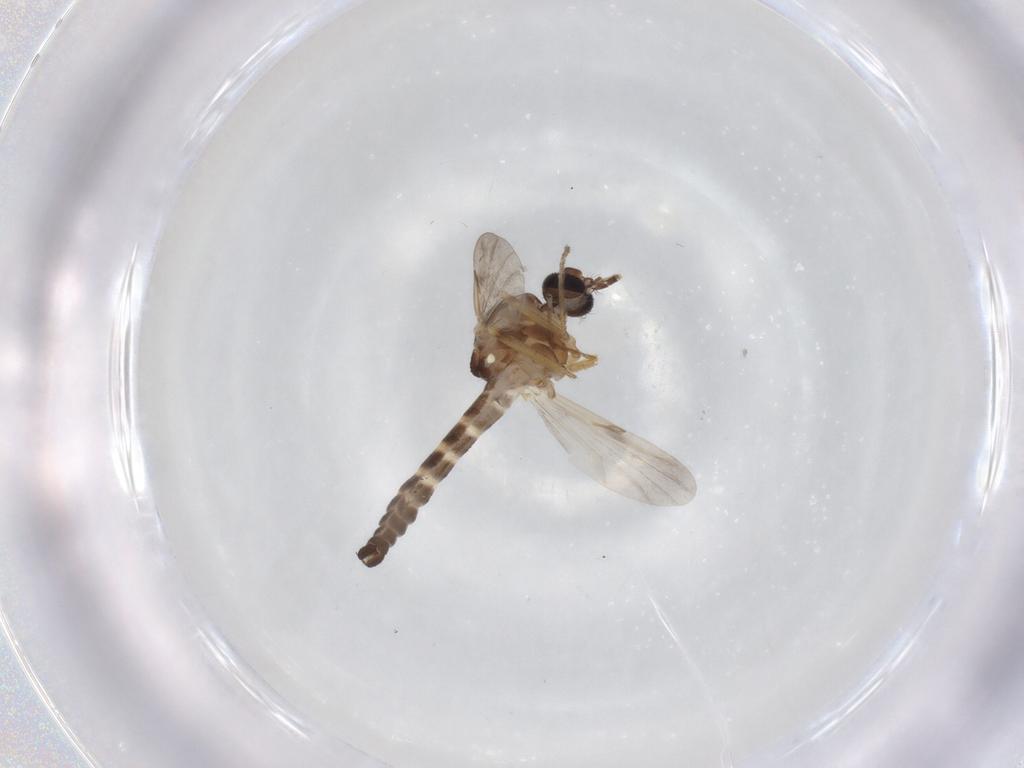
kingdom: Animalia
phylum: Arthropoda
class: Insecta
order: Diptera
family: Ceratopogonidae
